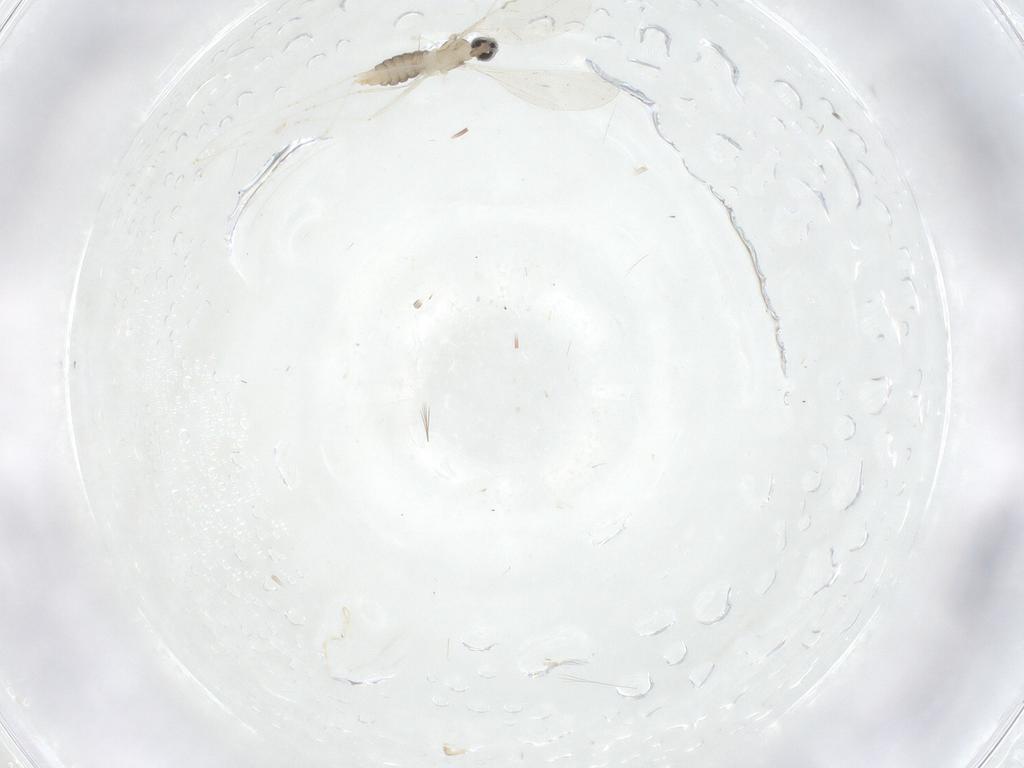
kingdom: Animalia
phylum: Arthropoda
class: Insecta
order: Diptera
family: Cecidomyiidae
